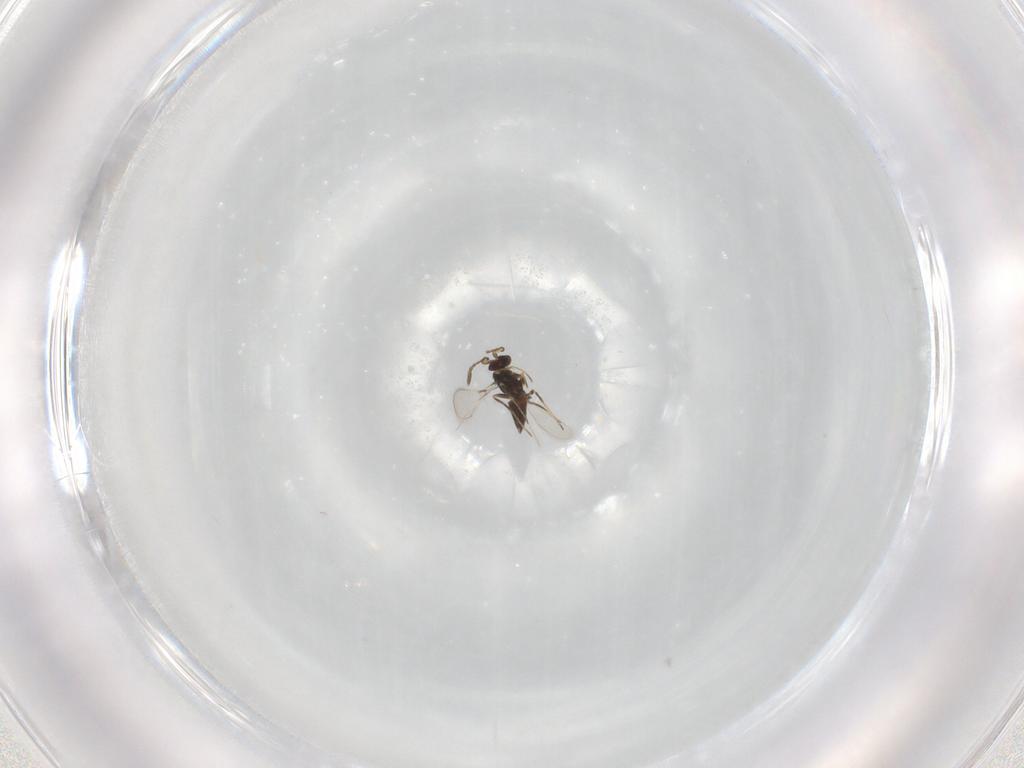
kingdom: Animalia
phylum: Arthropoda
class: Insecta
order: Hymenoptera
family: Mymaridae
